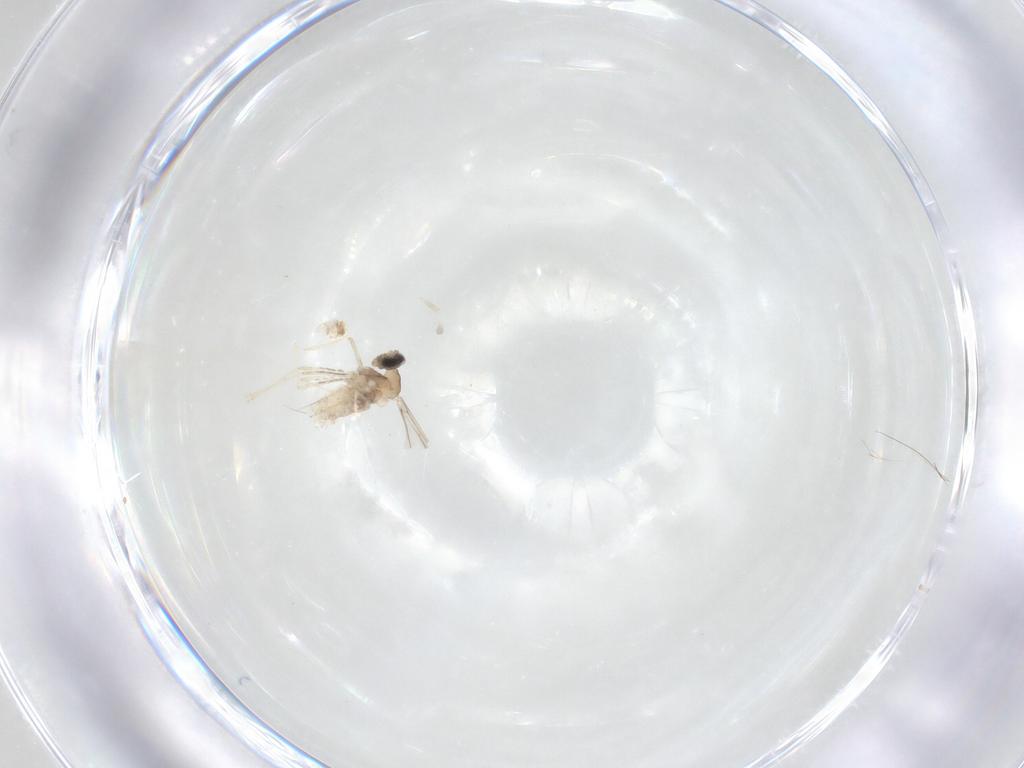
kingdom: Animalia
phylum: Arthropoda
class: Insecta
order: Diptera
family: Cecidomyiidae
